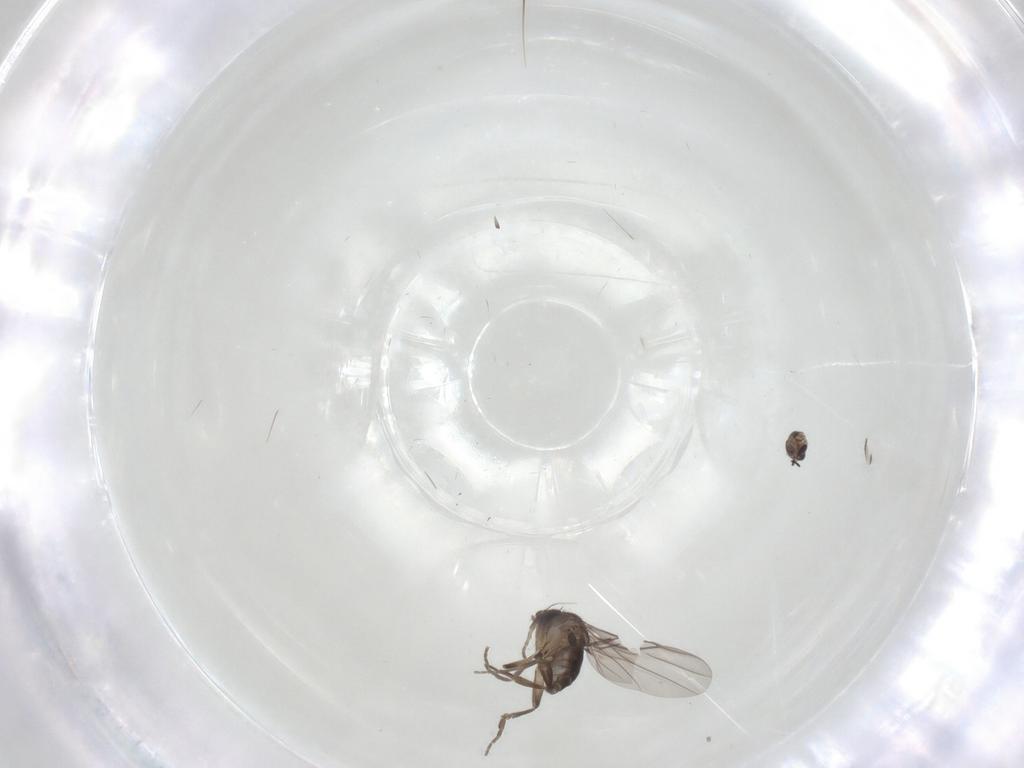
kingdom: Animalia
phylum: Arthropoda
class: Insecta
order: Diptera
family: Phoridae
